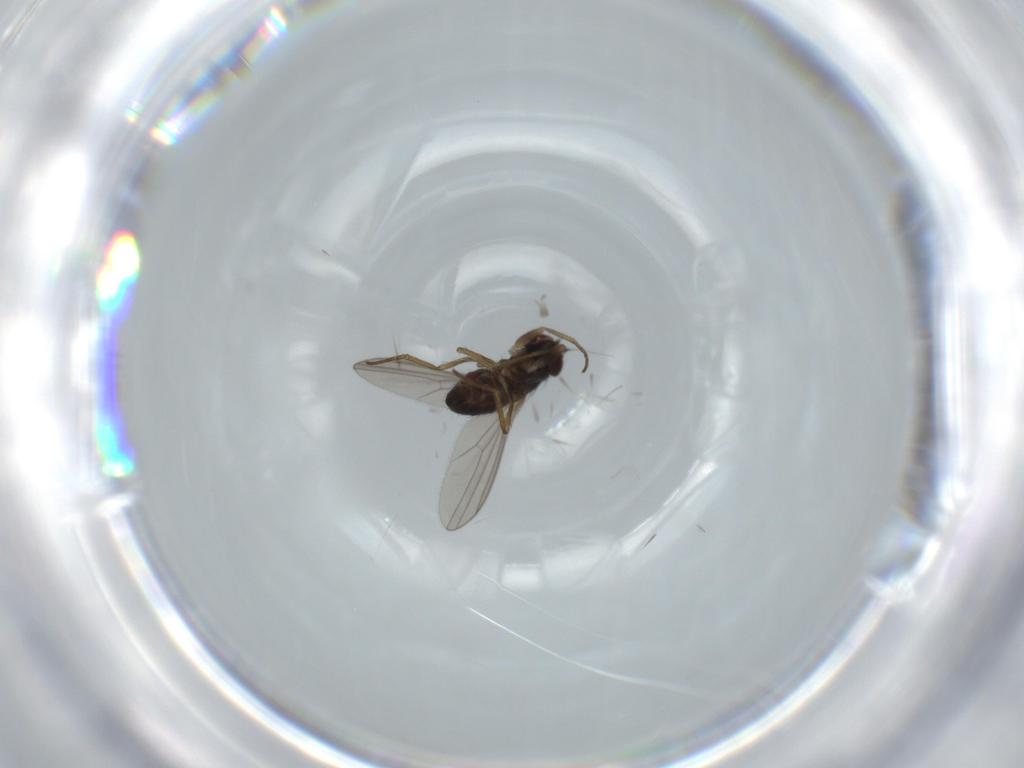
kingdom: Animalia
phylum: Arthropoda
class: Insecta
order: Diptera
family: Dolichopodidae
